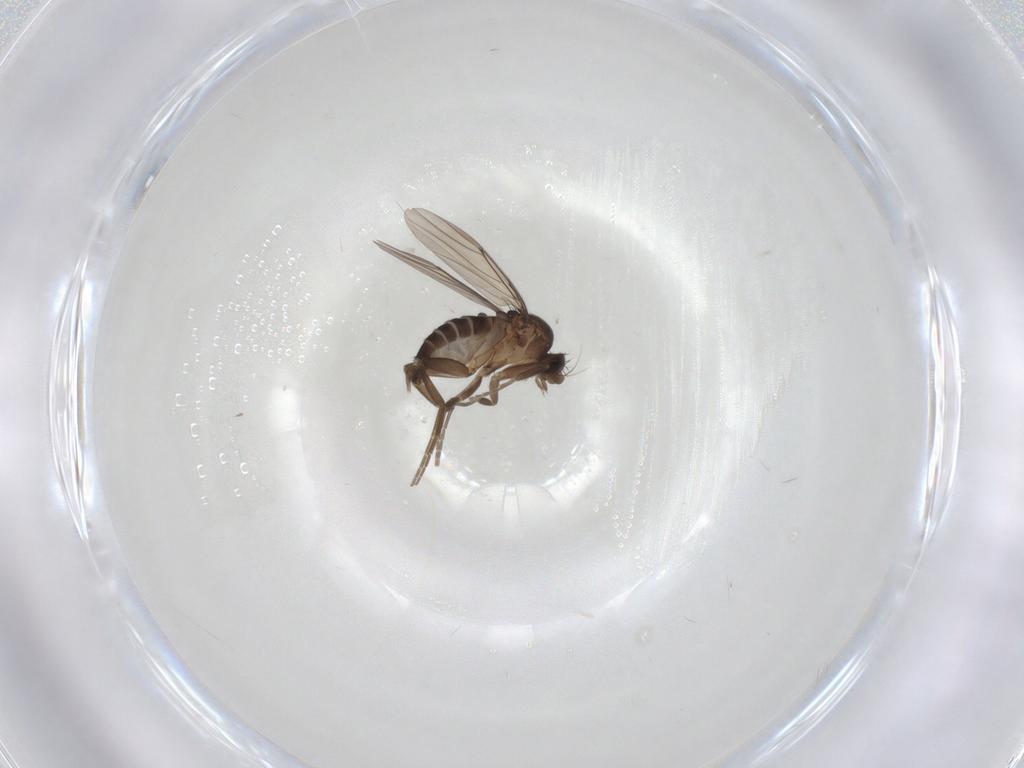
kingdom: Animalia
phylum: Arthropoda
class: Insecta
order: Diptera
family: Phoridae
